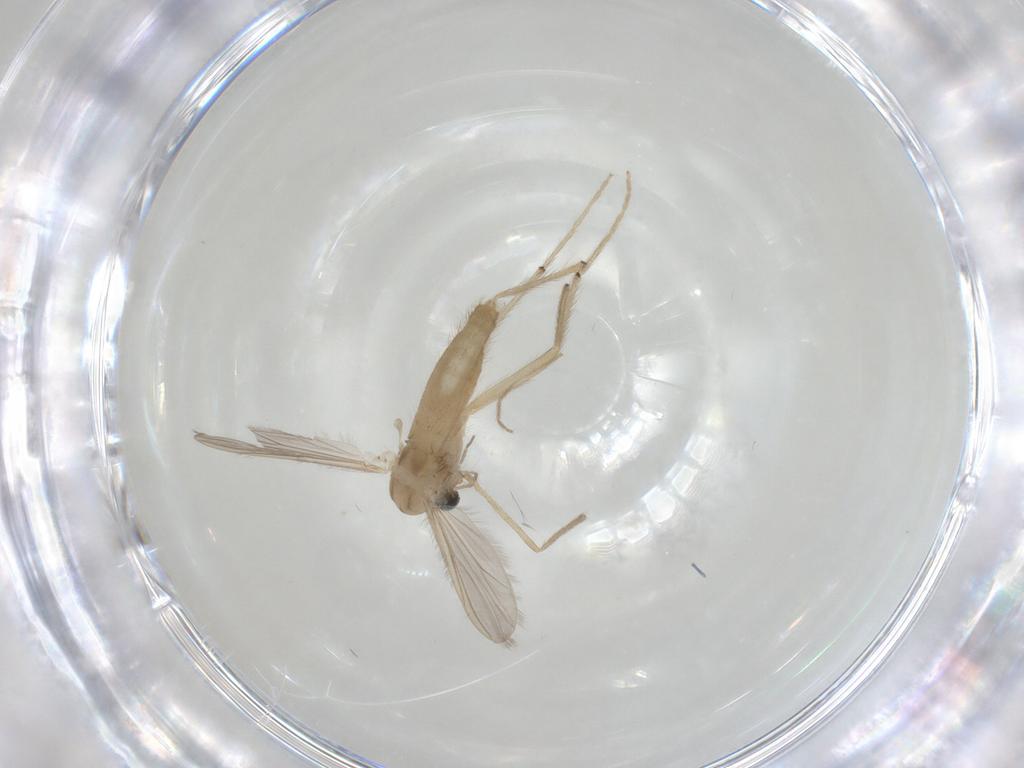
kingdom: Animalia
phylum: Arthropoda
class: Insecta
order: Diptera
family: Chironomidae
